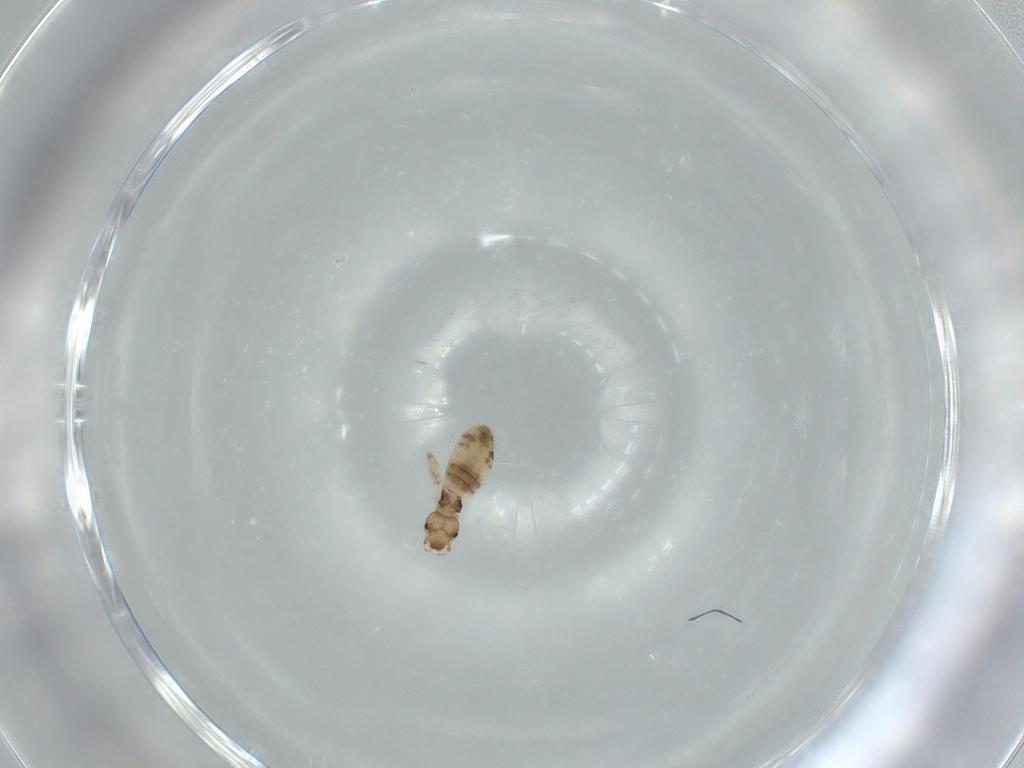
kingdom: Animalia
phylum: Arthropoda
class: Insecta
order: Psocodea
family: Liposcelididae
